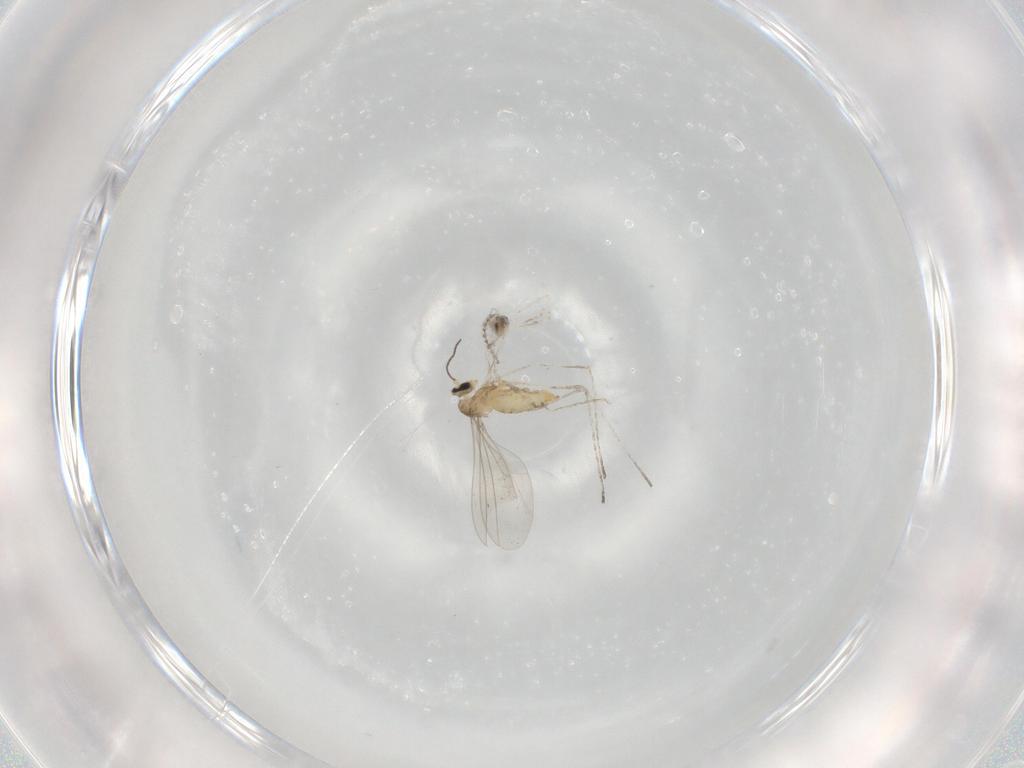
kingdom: Animalia
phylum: Arthropoda
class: Insecta
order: Diptera
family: Cecidomyiidae
